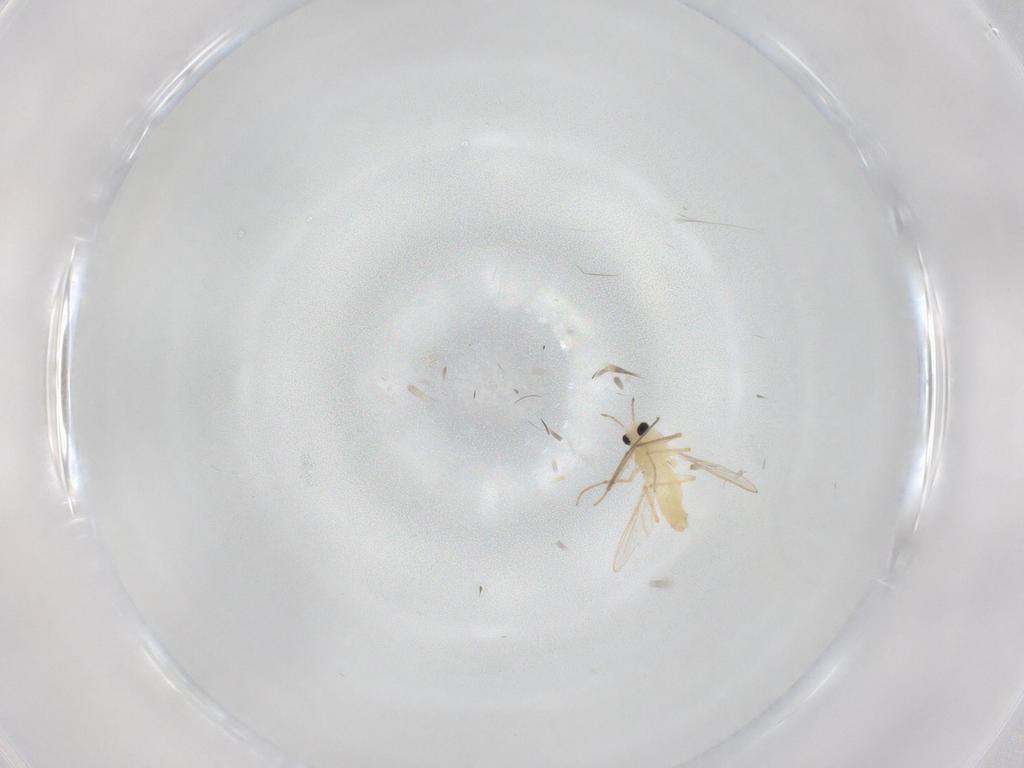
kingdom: Animalia
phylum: Arthropoda
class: Insecta
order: Diptera
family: Chironomidae
